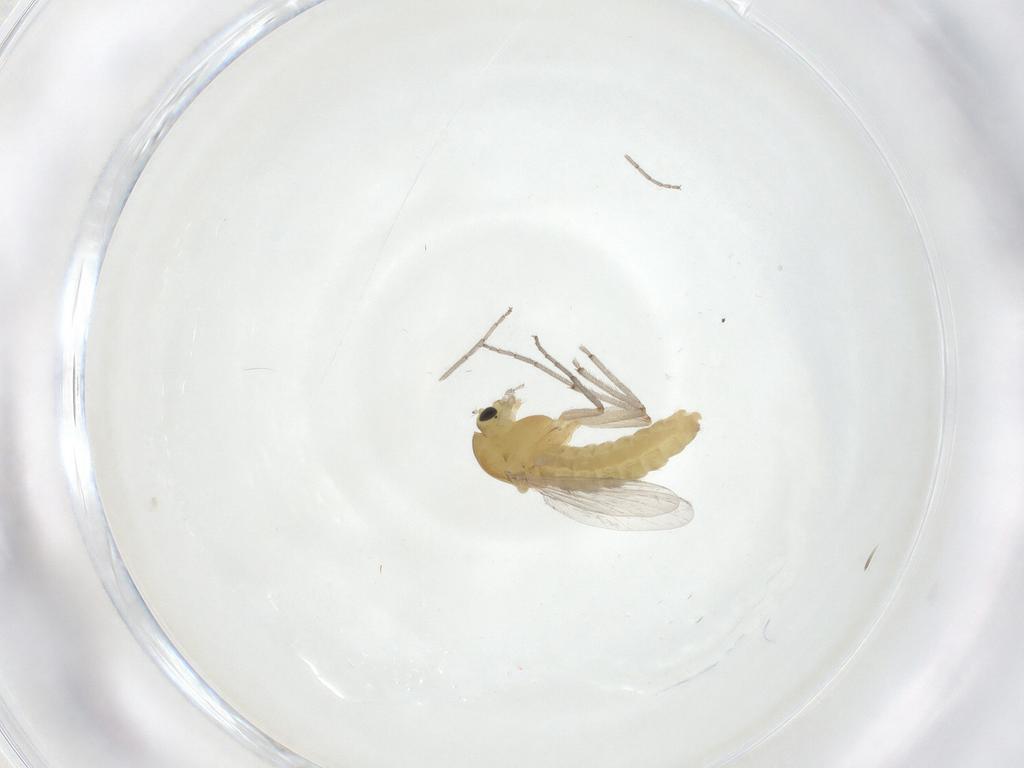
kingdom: Animalia
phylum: Arthropoda
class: Insecta
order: Diptera
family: Chironomidae
